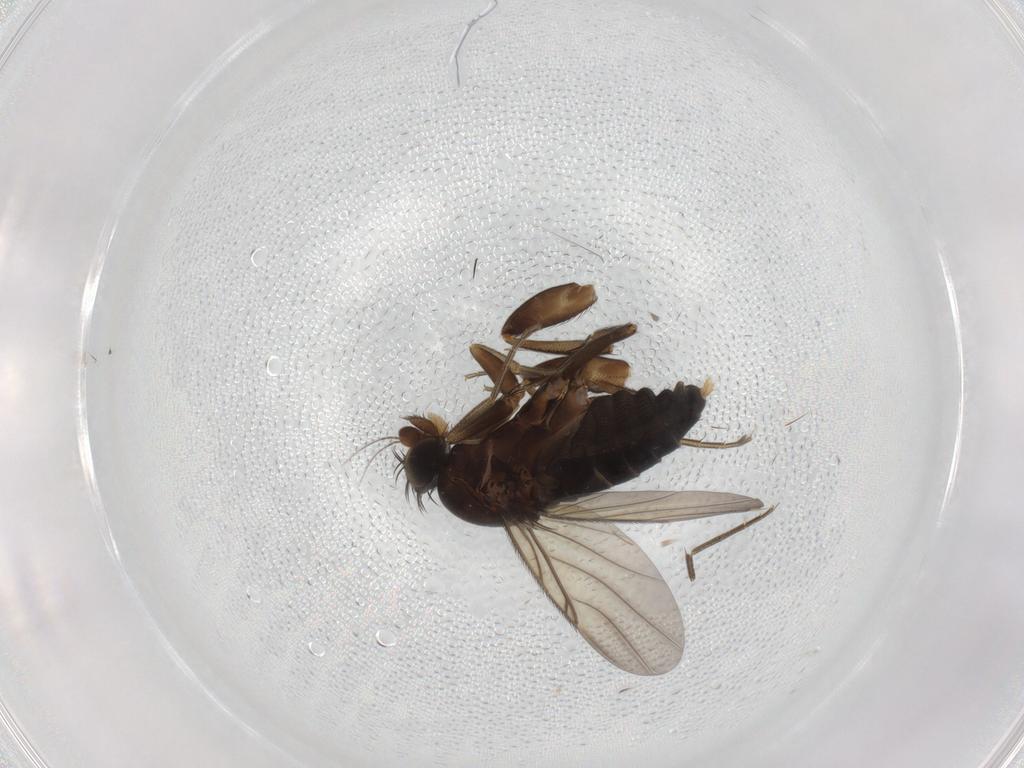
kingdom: Animalia
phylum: Arthropoda
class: Insecta
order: Diptera
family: Phoridae
